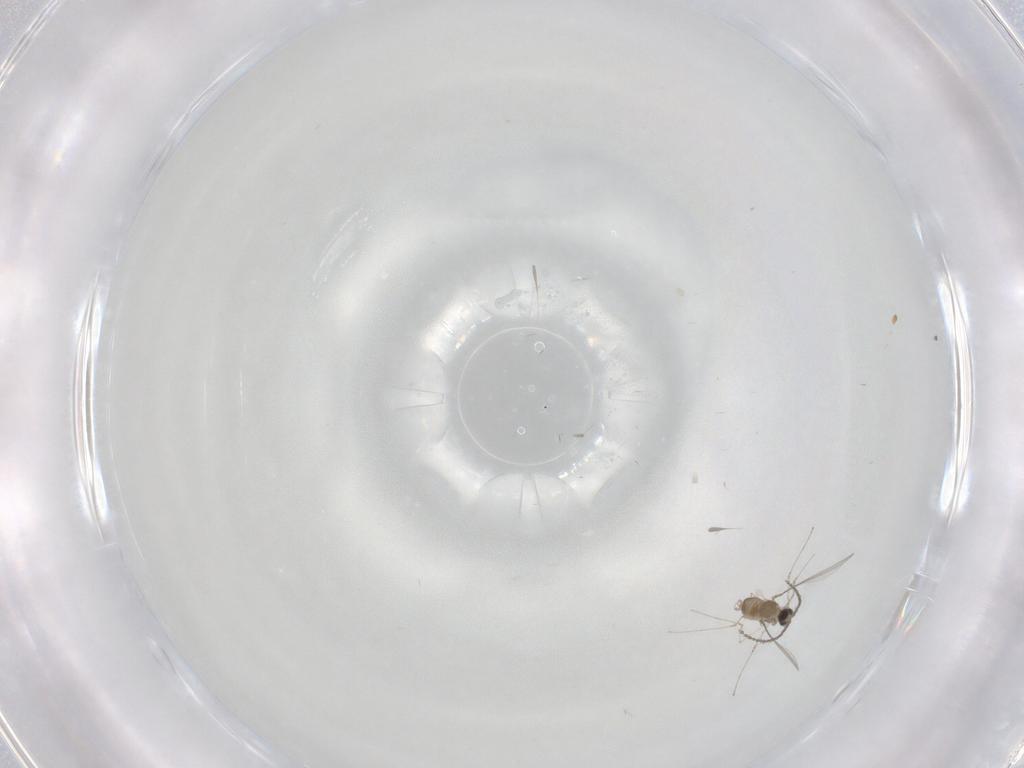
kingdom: Animalia
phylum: Arthropoda
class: Insecta
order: Diptera
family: Cecidomyiidae
